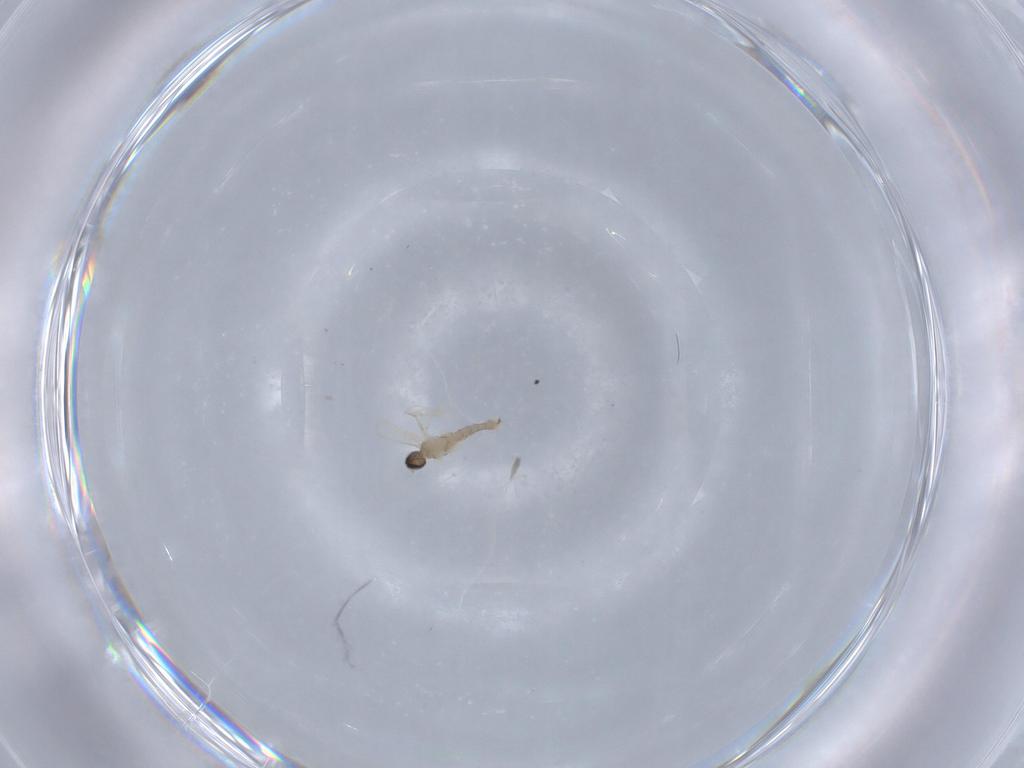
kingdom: Animalia
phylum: Arthropoda
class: Insecta
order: Diptera
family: Cecidomyiidae
